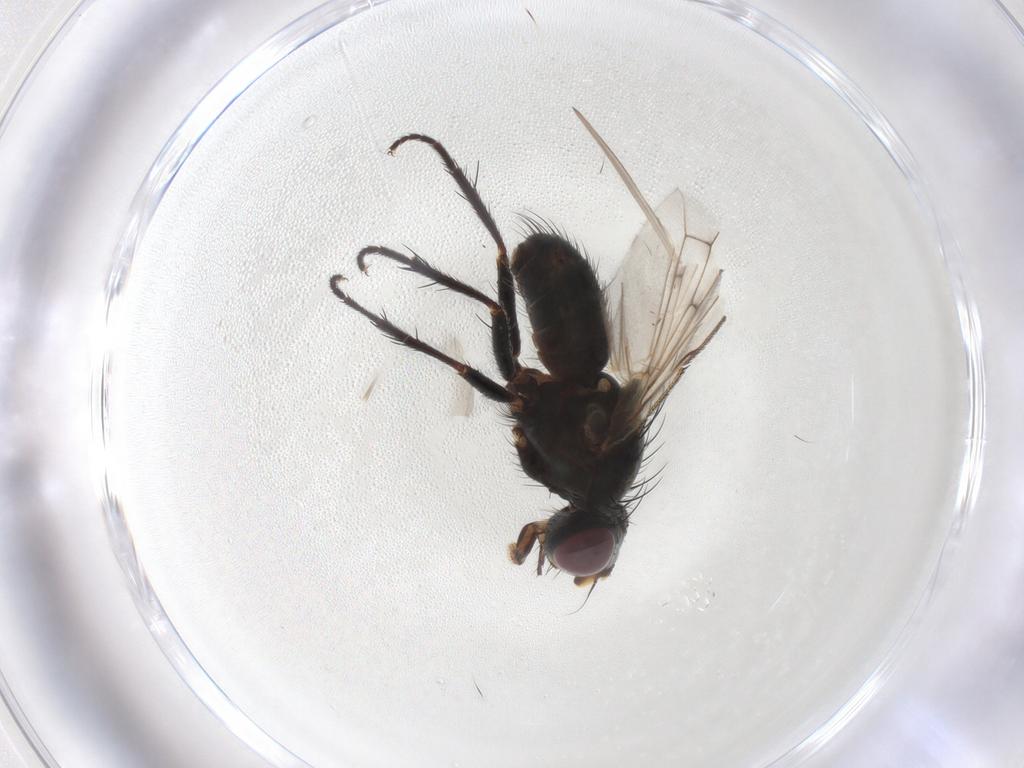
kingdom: Animalia
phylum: Arthropoda
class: Insecta
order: Diptera
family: Muscidae
